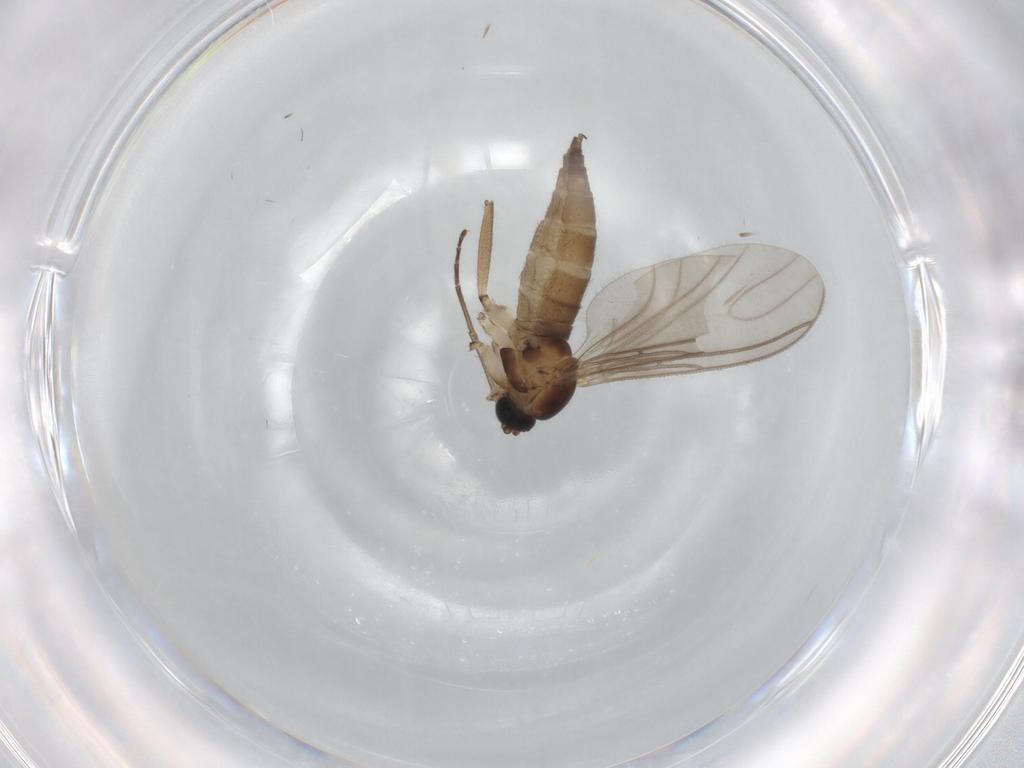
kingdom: Animalia
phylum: Arthropoda
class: Insecta
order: Diptera
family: Sciaridae
